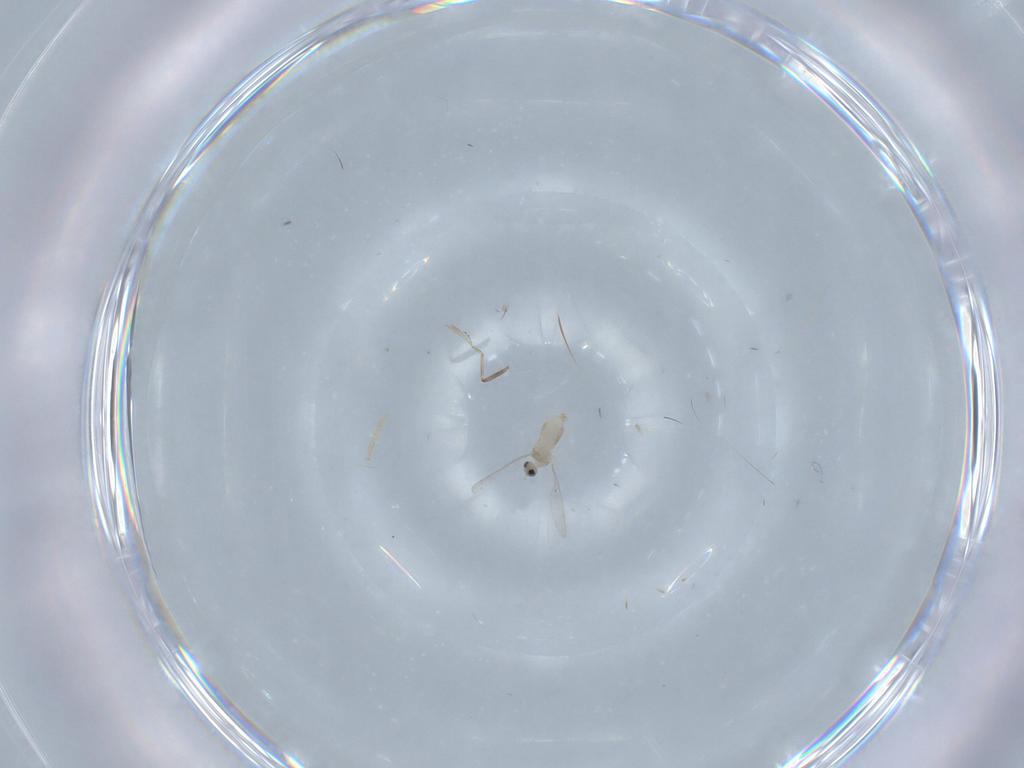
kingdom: Animalia
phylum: Arthropoda
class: Insecta
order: Diptera
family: Cecidomyiidae
